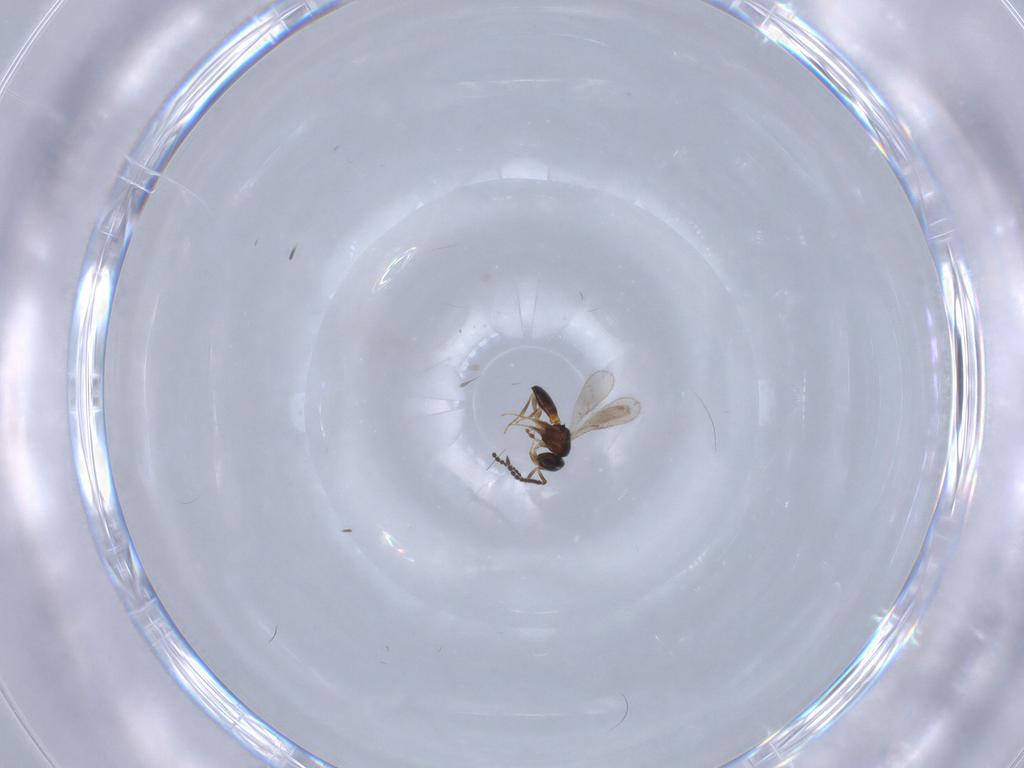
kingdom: Animalia
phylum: Arthropoda
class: Insecta
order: Hymenoptera
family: Scelionidae
